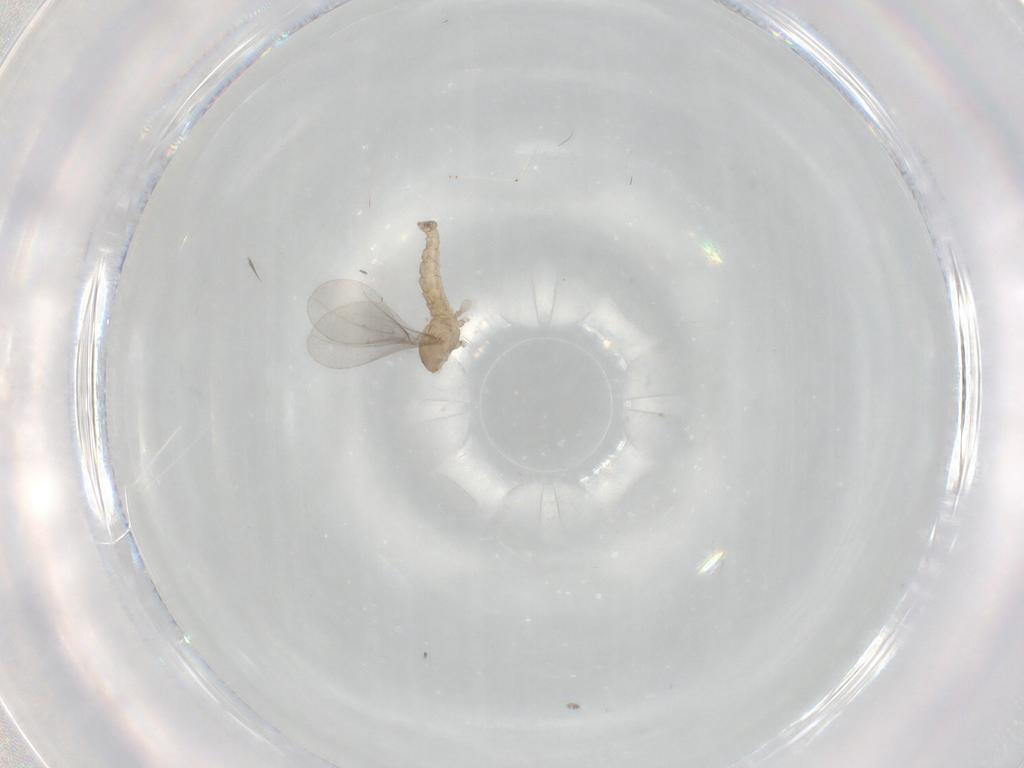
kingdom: Animalia
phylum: Arthropoda
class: Insecta
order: Diptera
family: Cecidomyiidae
